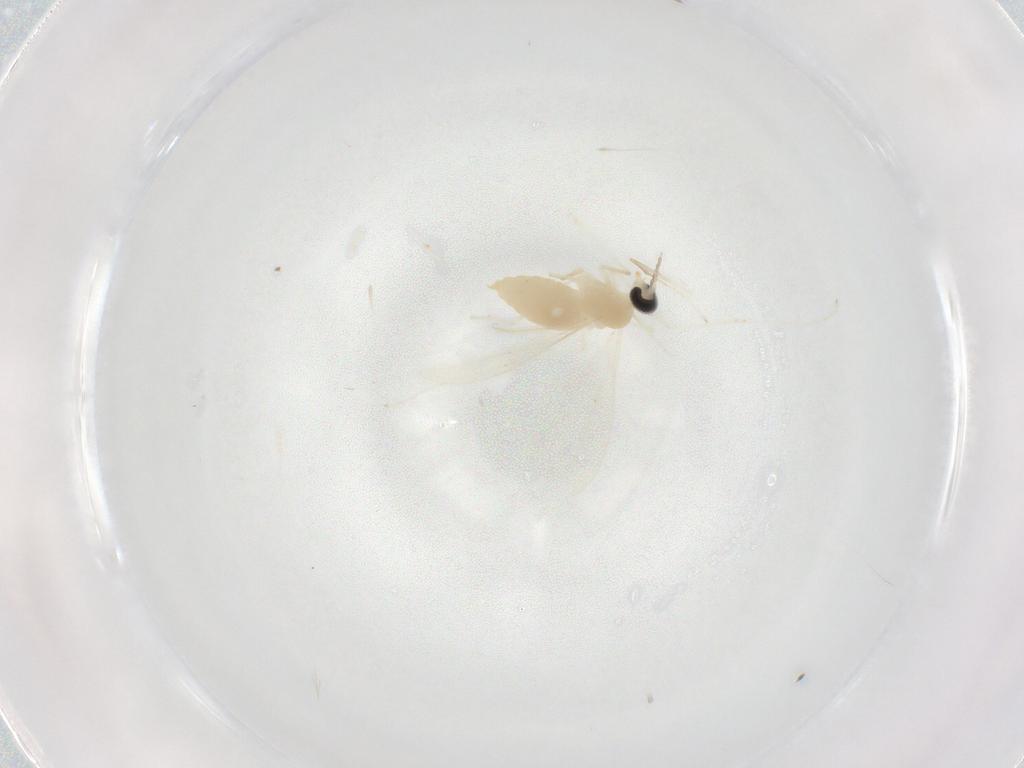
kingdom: Animalia
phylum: Arthropoda
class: Insecta
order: Diptera
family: Cecidomyiidae
